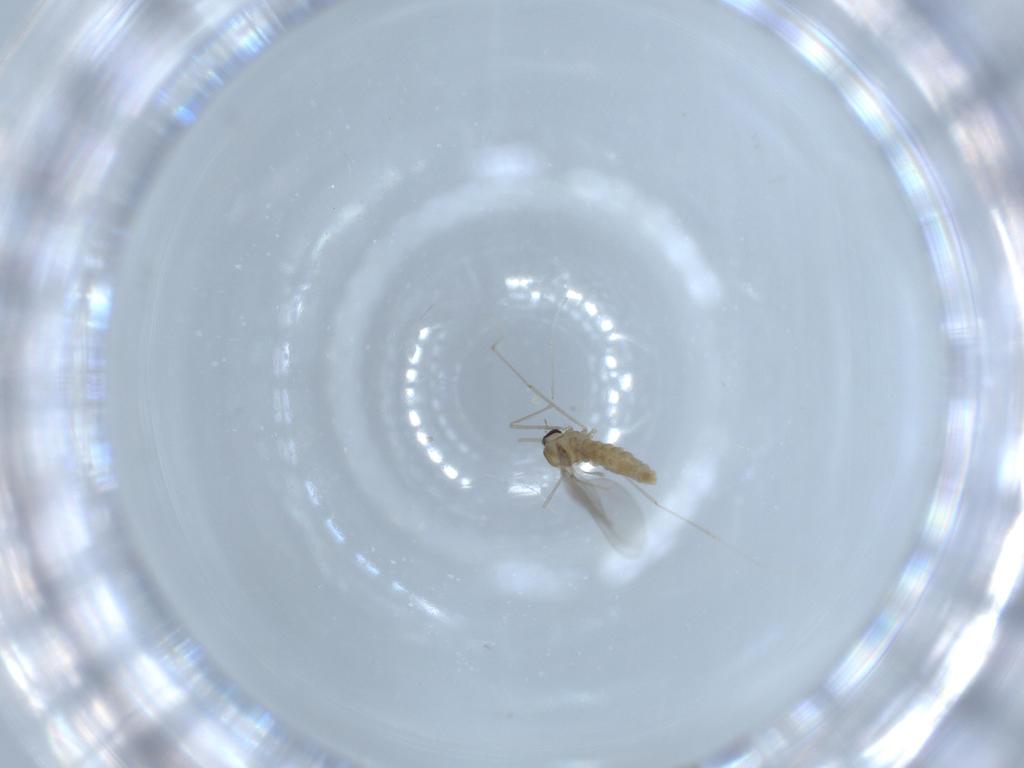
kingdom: Animalia
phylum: Arthropoda
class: Insecta
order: Diptera
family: Cecidomyiidae
